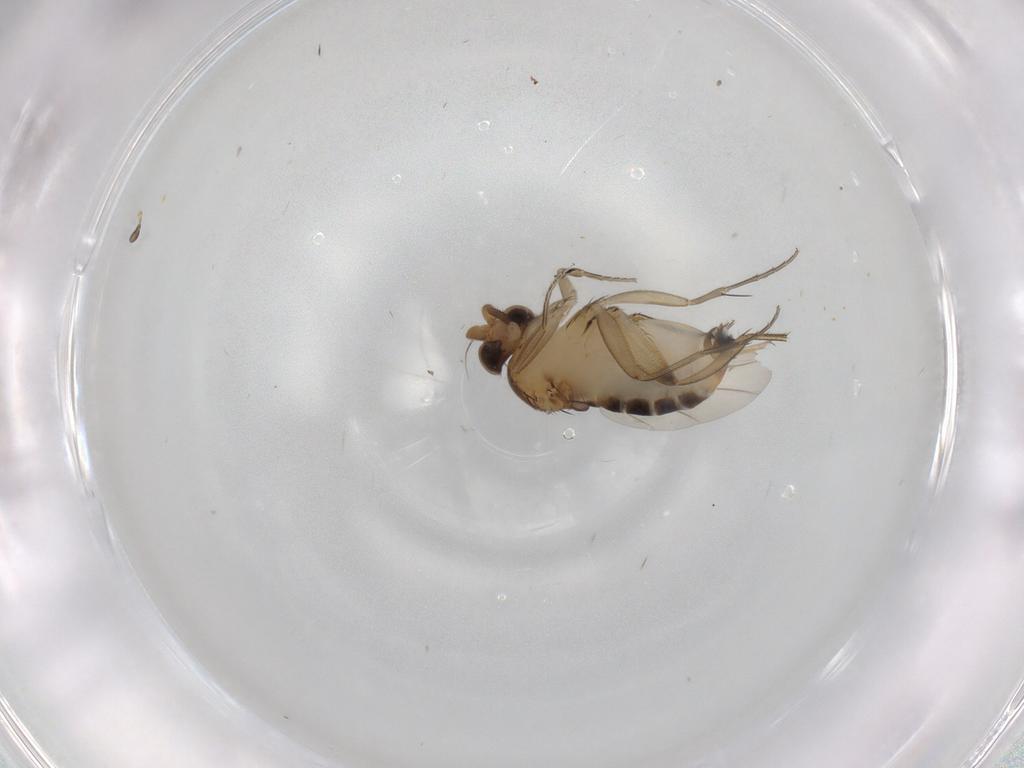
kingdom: Animalia
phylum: Arthropoda
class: Insecta
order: Diptera
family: Phoridae
